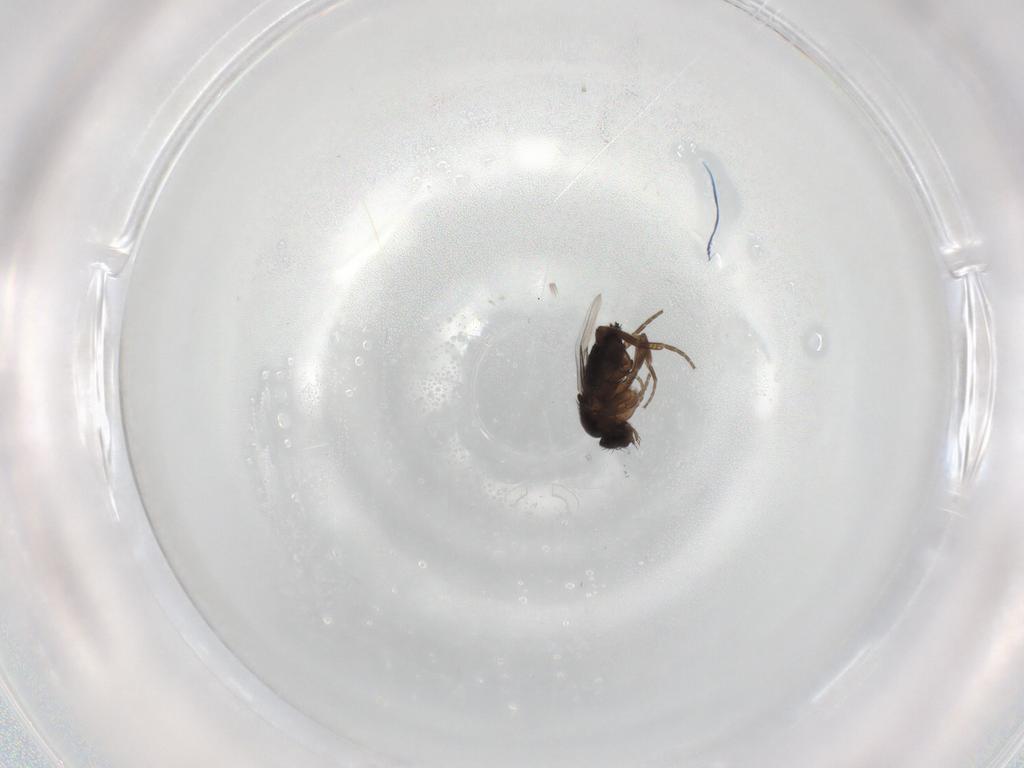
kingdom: Animalia
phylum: Arthropoda
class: Insecta
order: Diptera
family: Phoridae
